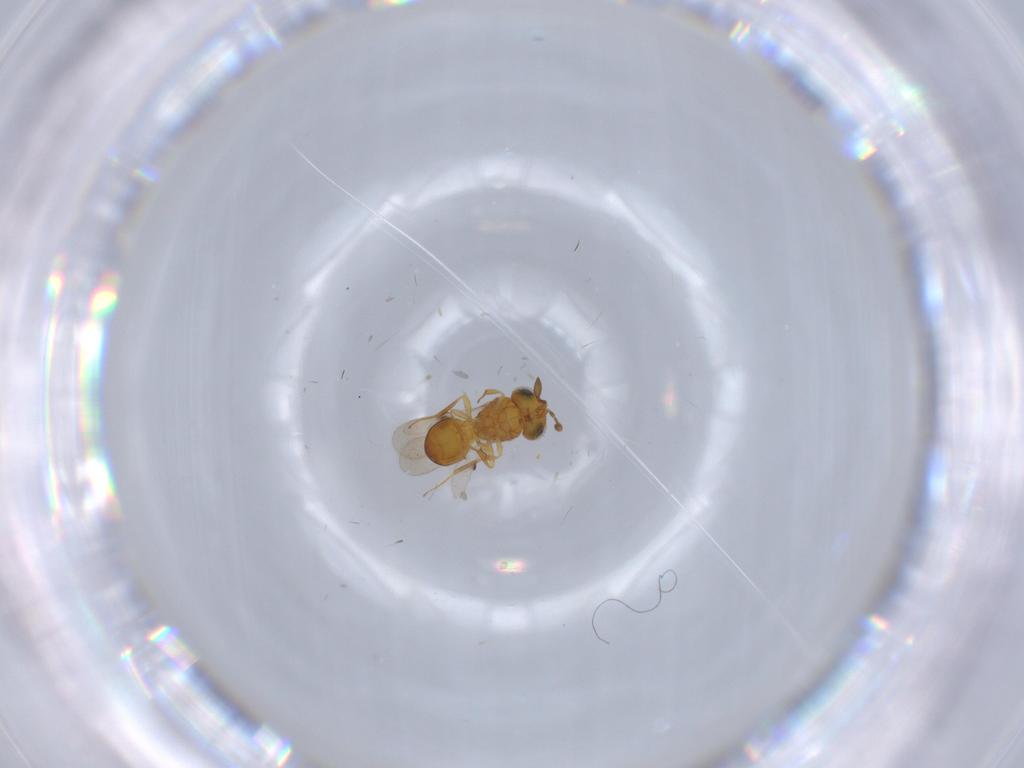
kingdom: Animalia
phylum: Arthropoda
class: Insecta
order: Hymenoptera
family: Scelionidae
